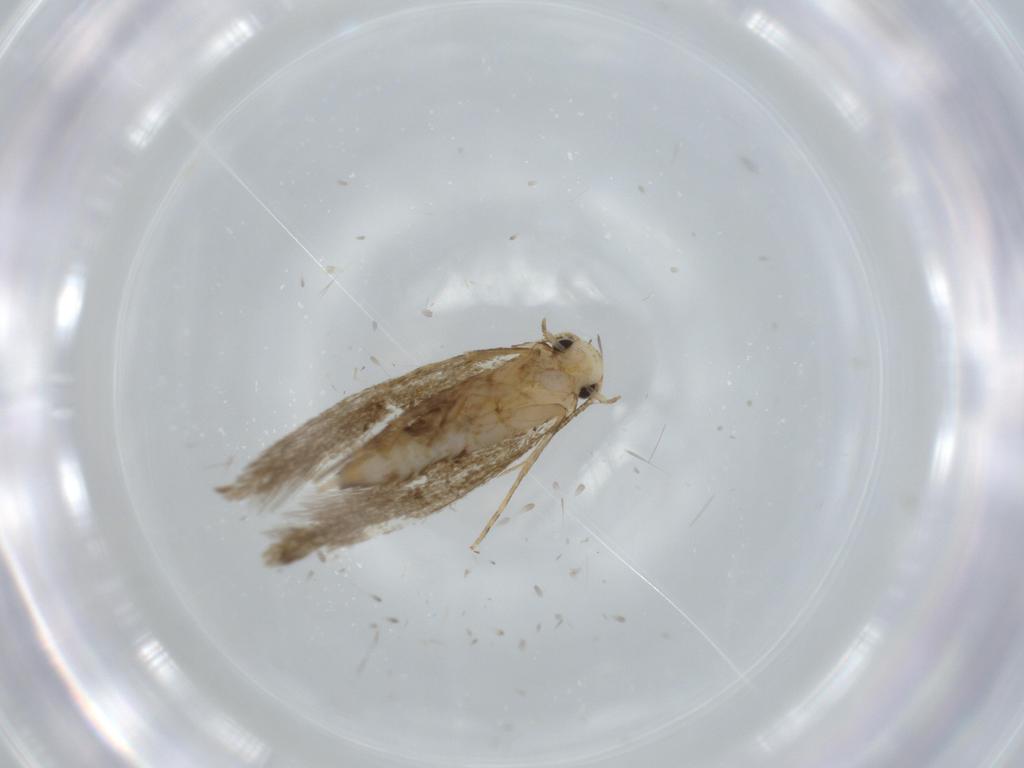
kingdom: Animalia
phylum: Arthropoda
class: Insecta
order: Lepidoptera
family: Tineidae
